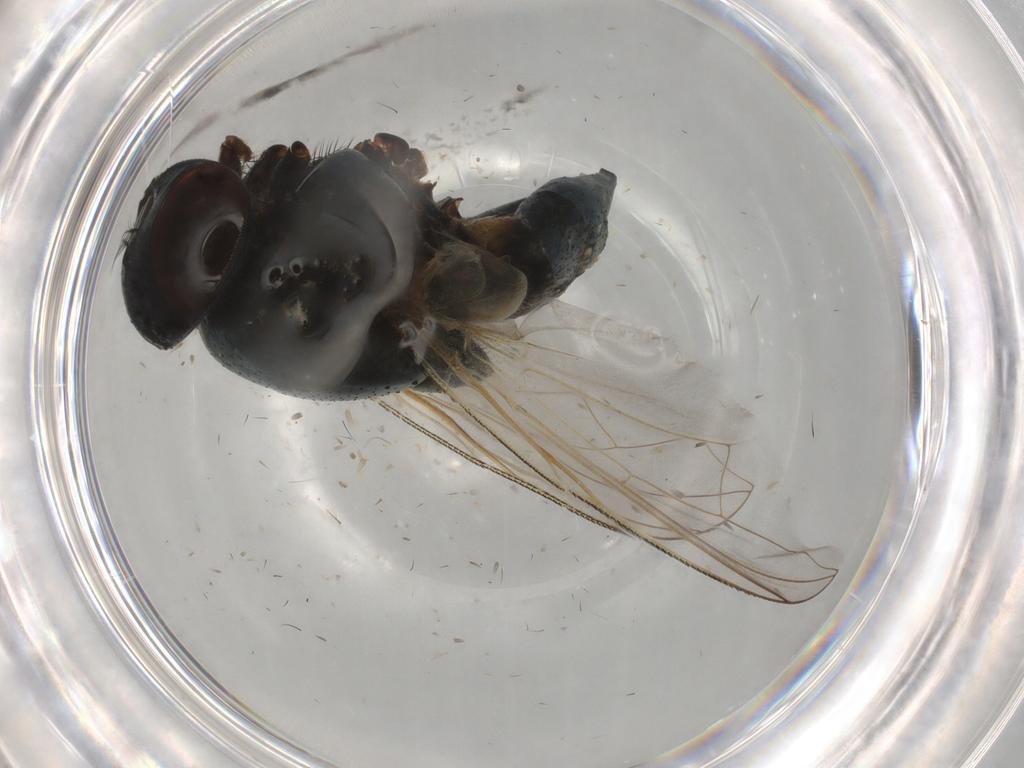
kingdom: Animalia
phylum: Arthropoda
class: Insecta
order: Diptera
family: Muscidae
